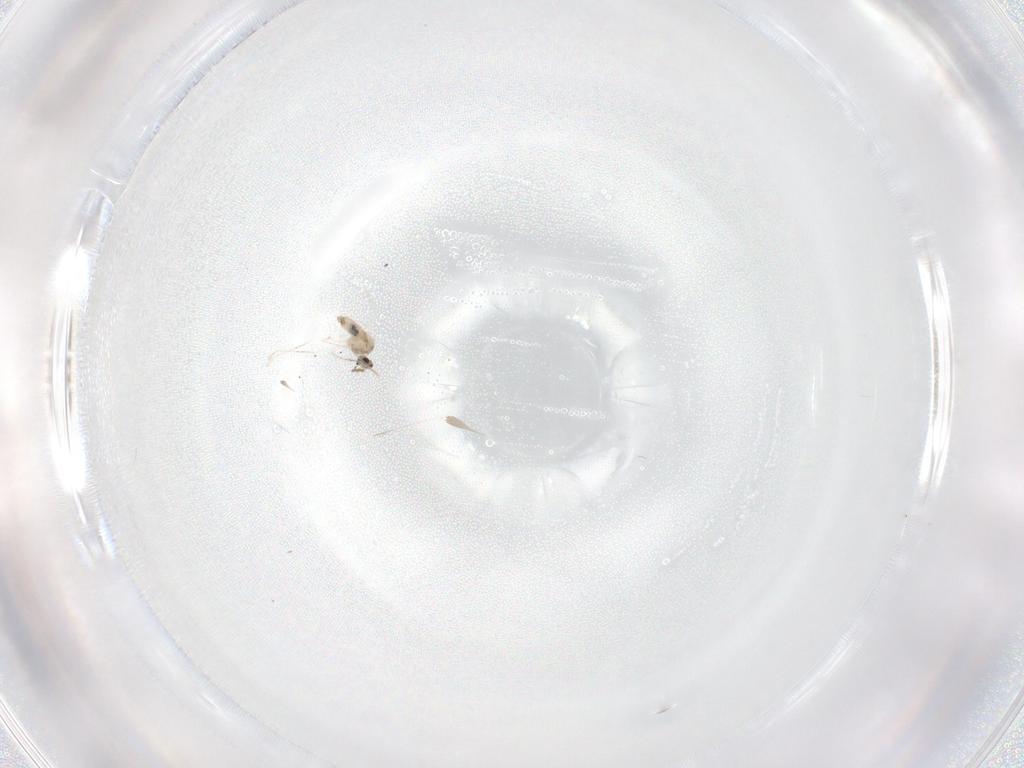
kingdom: Animalia
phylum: Arthropoda
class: Insecta
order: Diptera
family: Cecidomyiidae
